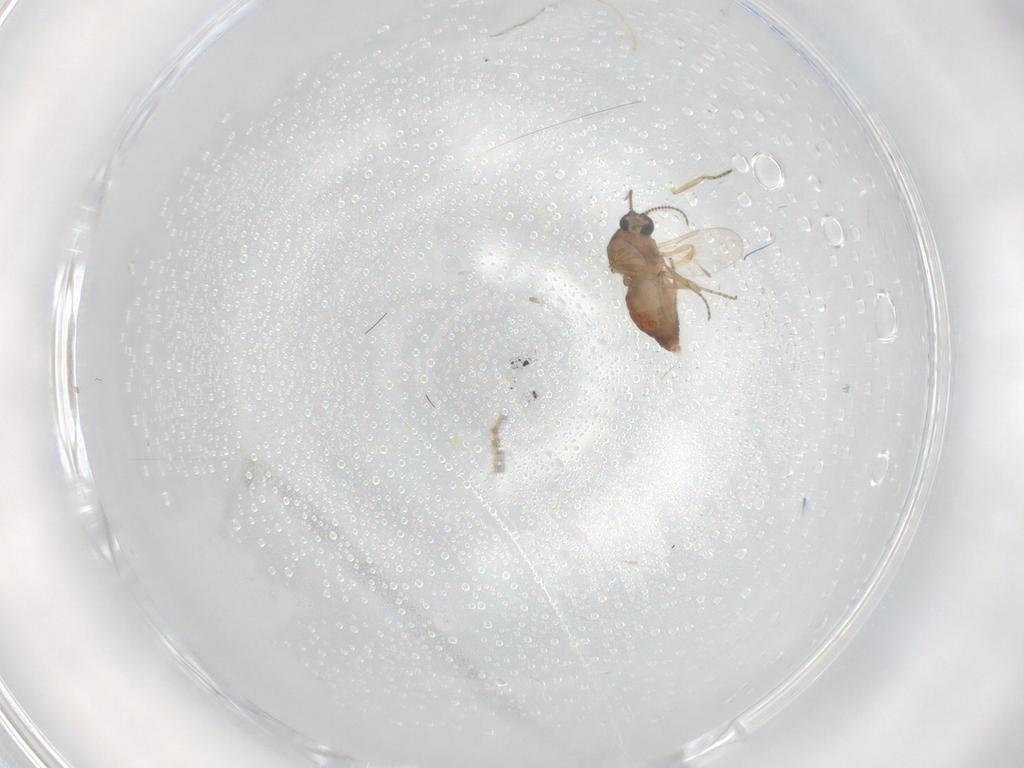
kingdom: Animalia
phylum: Arthropoda
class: Insecta
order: Diptera
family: Ceratopogonidae
